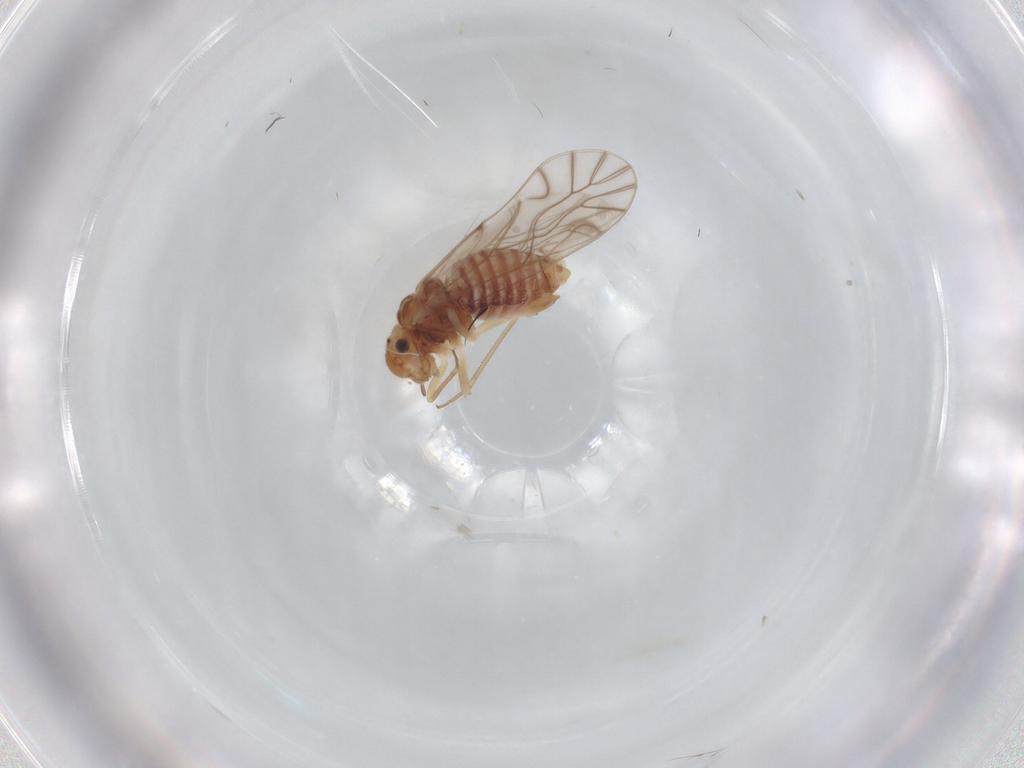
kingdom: Animalia
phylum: Arthropoda
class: Insecta
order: Psocodea
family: Lachesillidae
